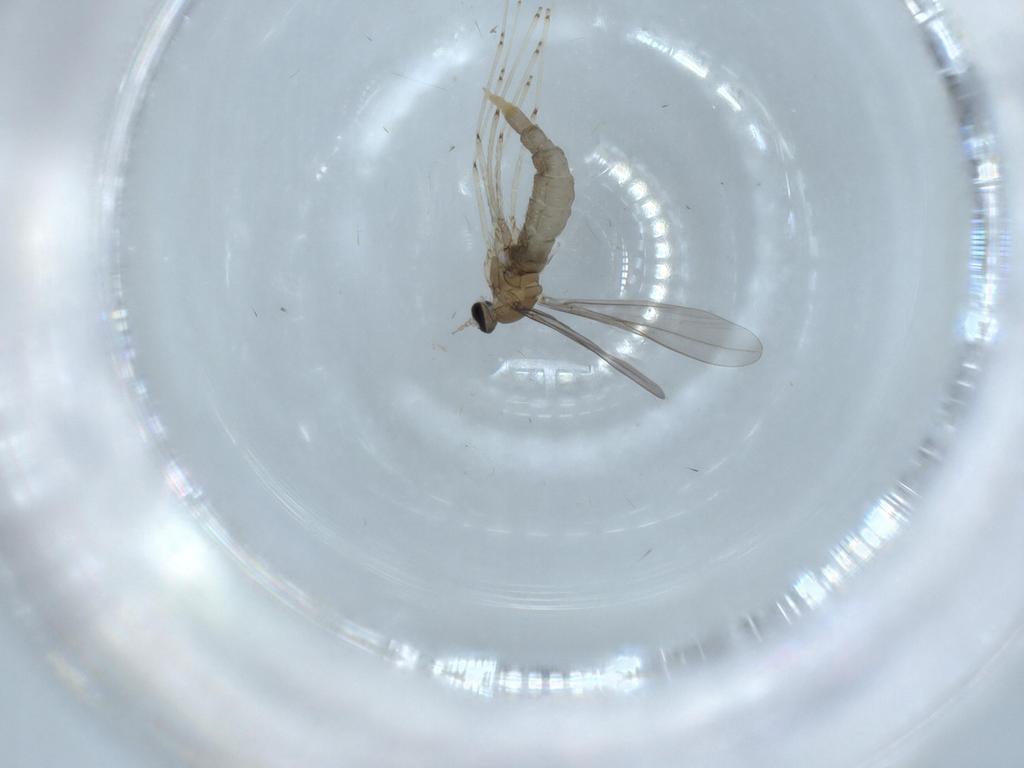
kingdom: Animalia
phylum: Arthropoda
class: Insecta
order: Diptera
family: Cecidomyiidae
